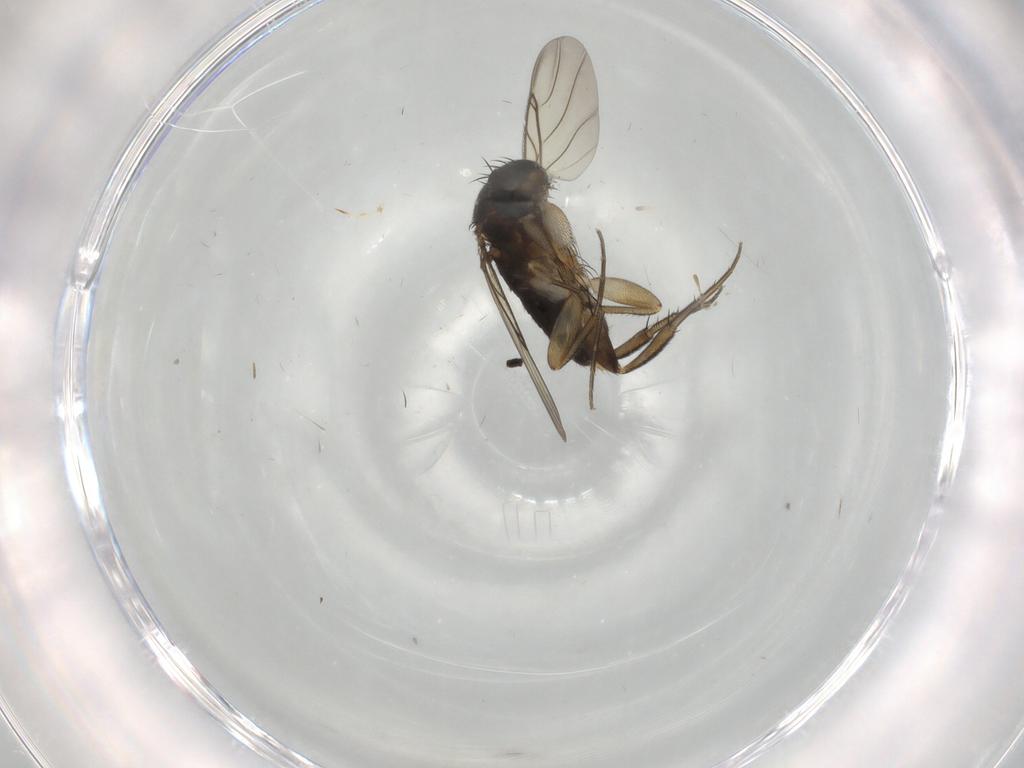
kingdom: Animalia
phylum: Arthropoda
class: Insecta
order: Diptera
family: Phoridae
